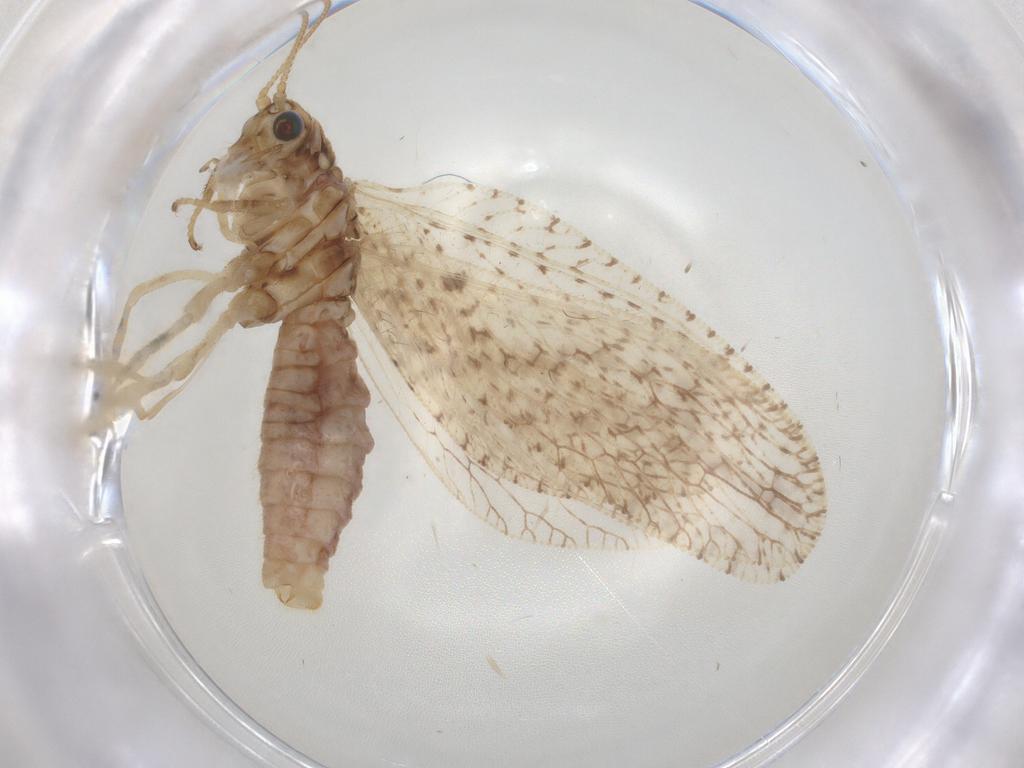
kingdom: Animalia
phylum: Arthropoda
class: Insecta
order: Neuroptera
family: Hemerobiidae
